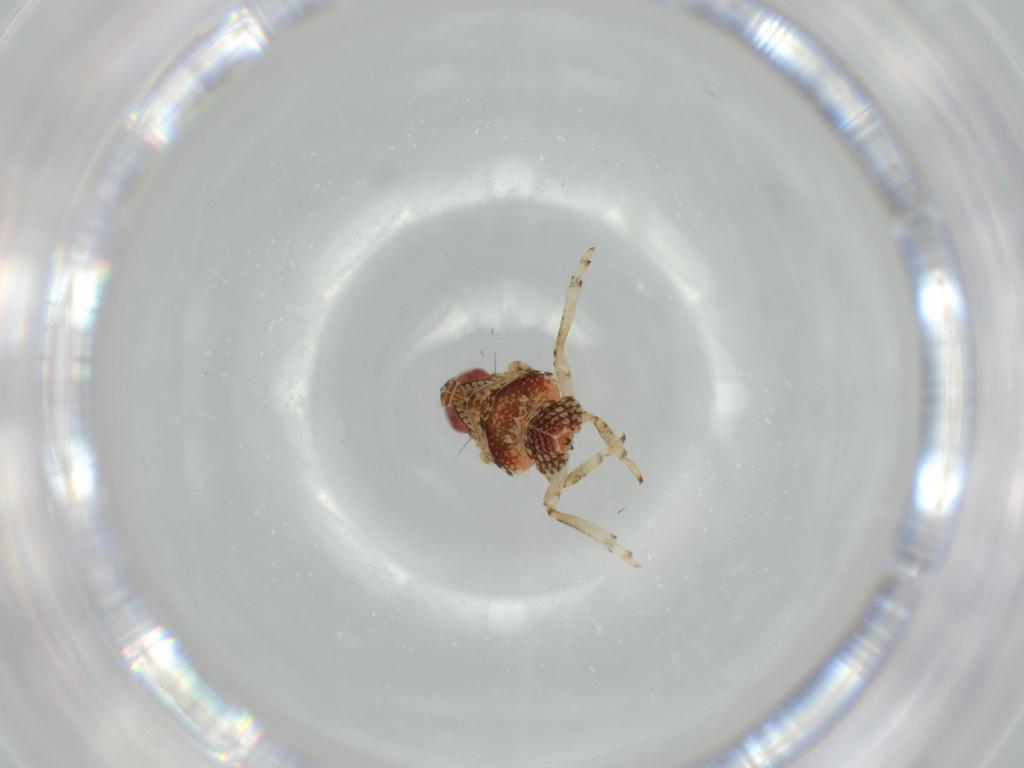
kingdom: Animalia
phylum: Arthropoda
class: Insecta
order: Hemiptera
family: Issidae
